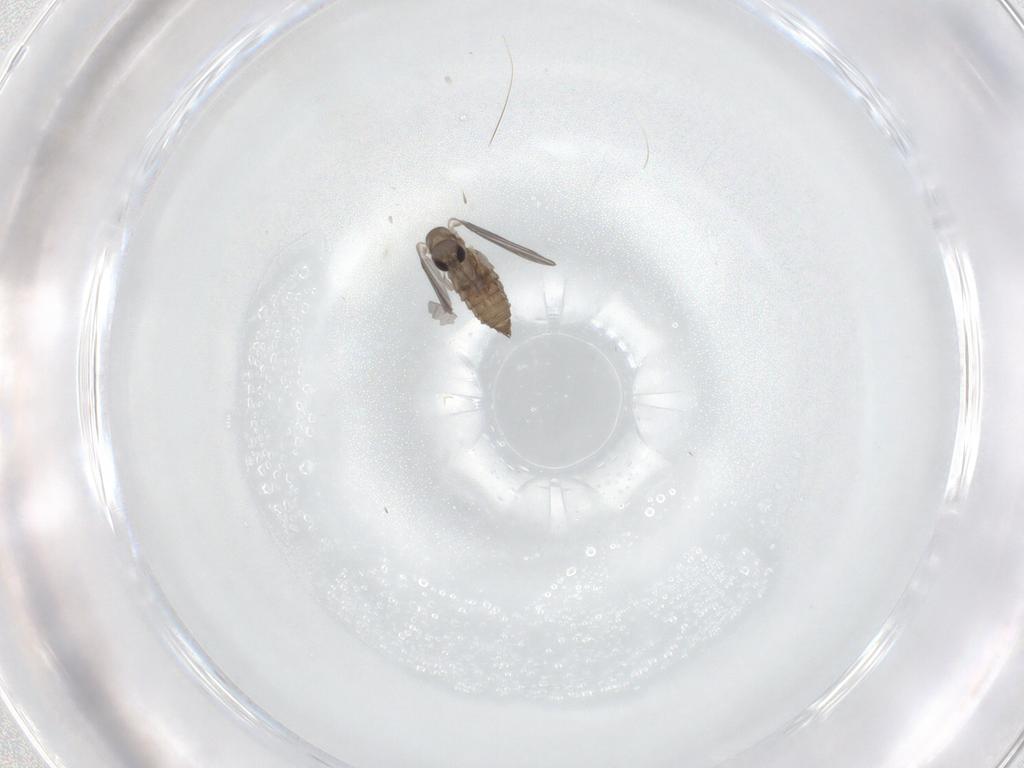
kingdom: Animalia
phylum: Arthropoda
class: Insecta
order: Diptera
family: Psychodidae
